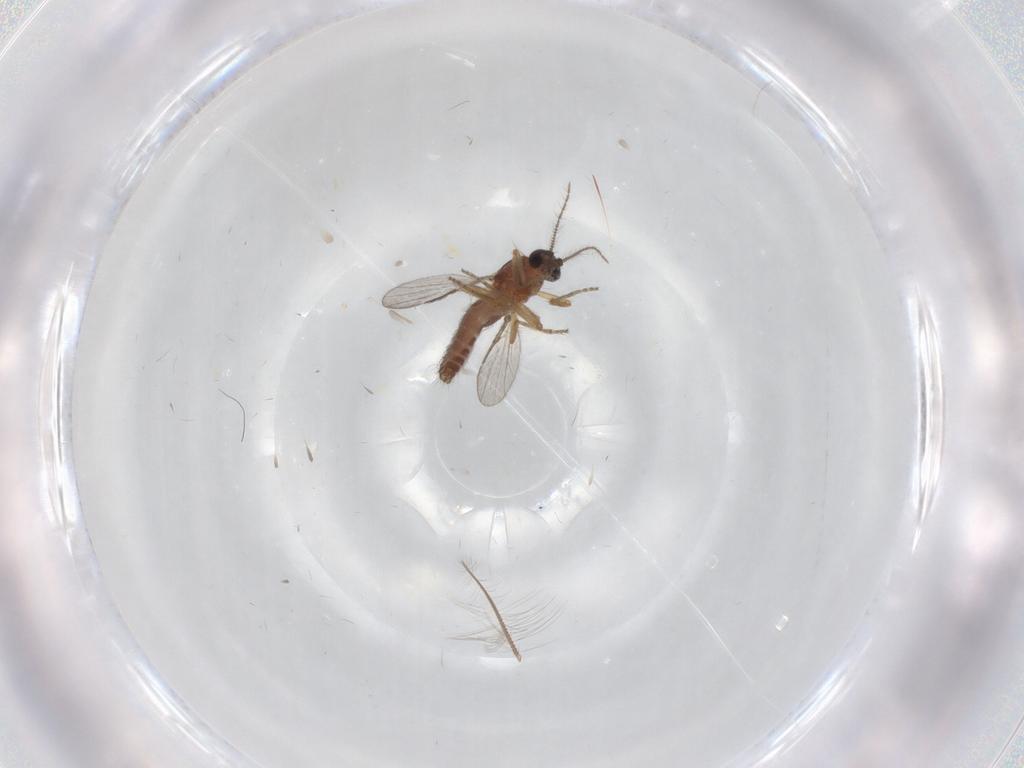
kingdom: Animalia
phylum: Arthropoda
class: Insecta
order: Diptera
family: Ceratopogonidae
